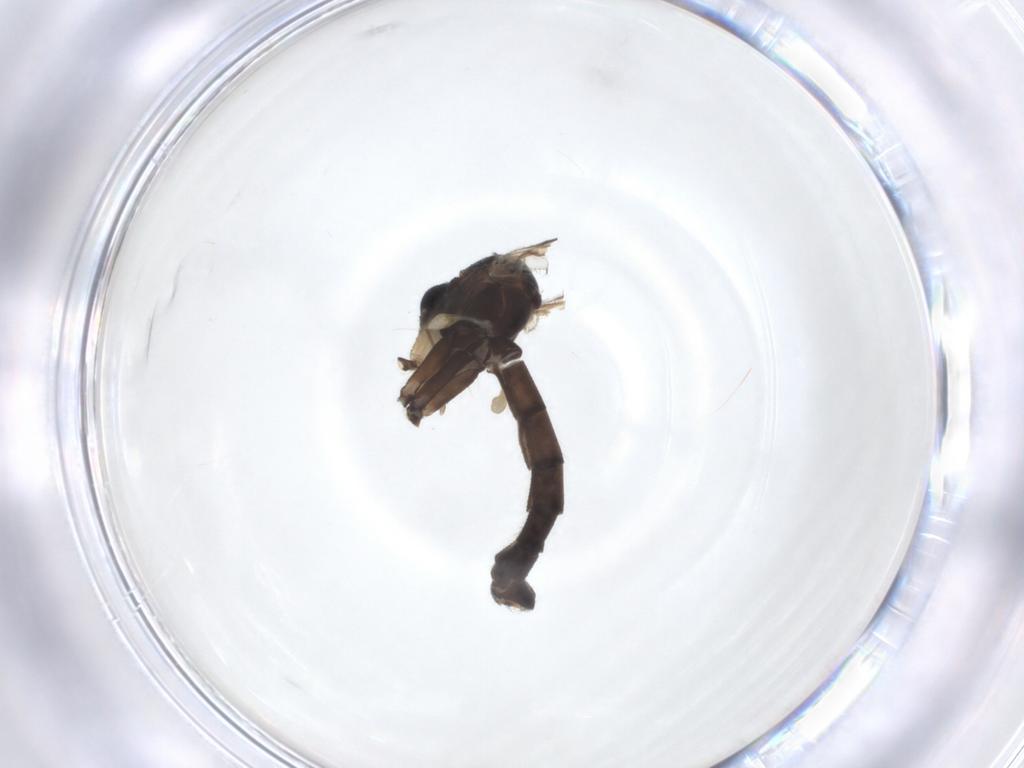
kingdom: Animalia
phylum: Arthropoda
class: Insecta
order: Diptera
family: Mycetophilidae
